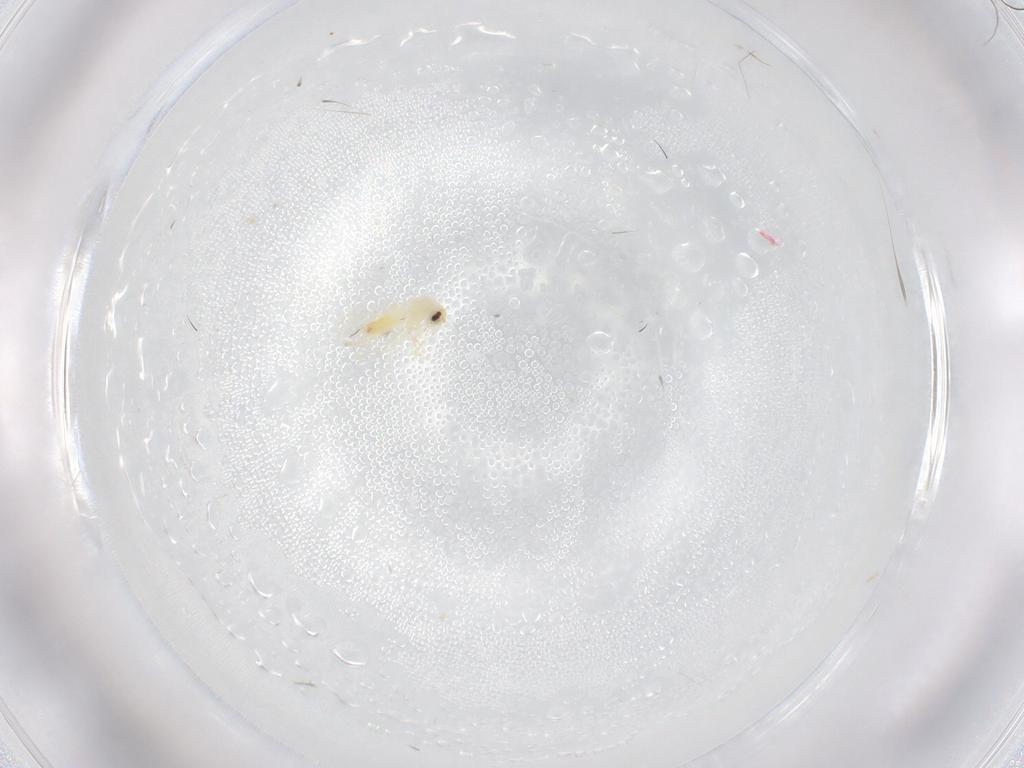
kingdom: Animalia
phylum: Arthropoda
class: Insecta
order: Hemiptera
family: Aleyrodidae
